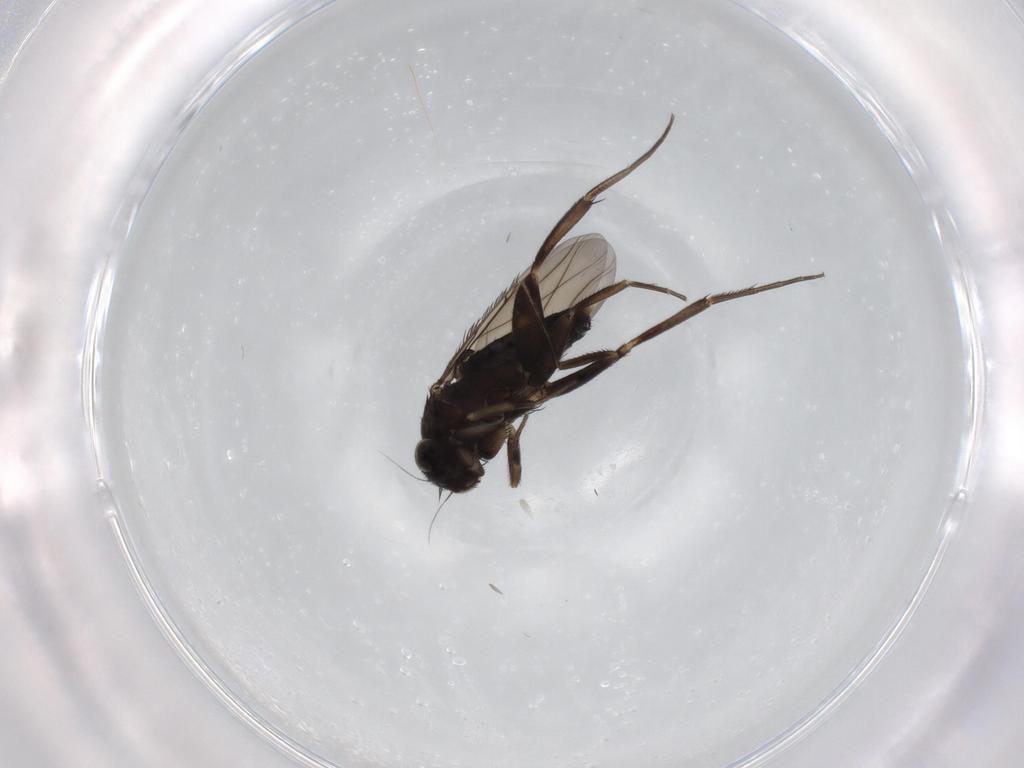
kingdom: Animalia
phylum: Arthropoda
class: Insecta
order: Diptera
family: Phoridae
